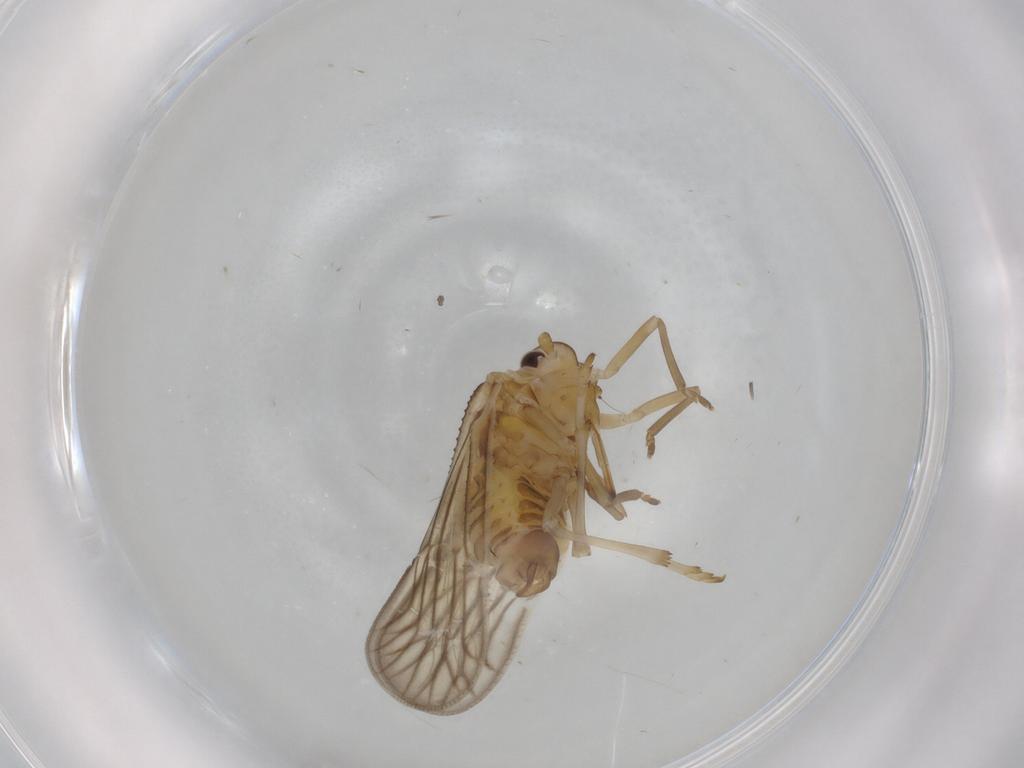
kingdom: Animalia
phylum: Arthropoda
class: Insecta
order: Hemiptera
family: Meenoplidae
